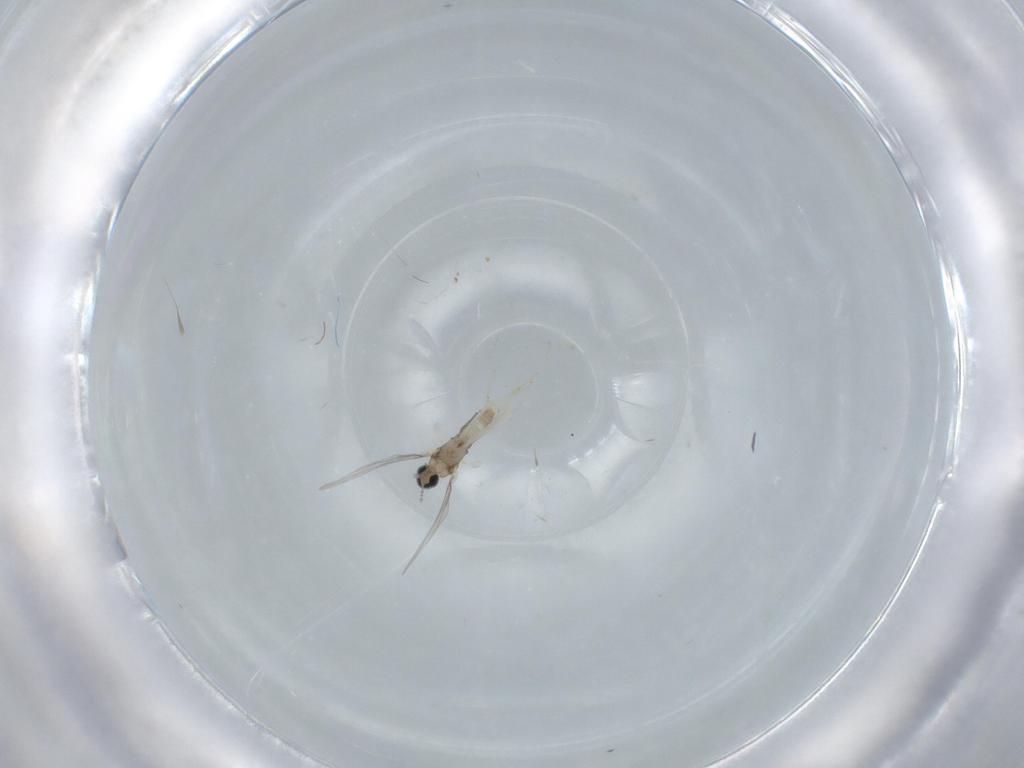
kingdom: Animalia
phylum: Arthropoda
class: Insecta
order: Diptera
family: Cecidomyiidae
